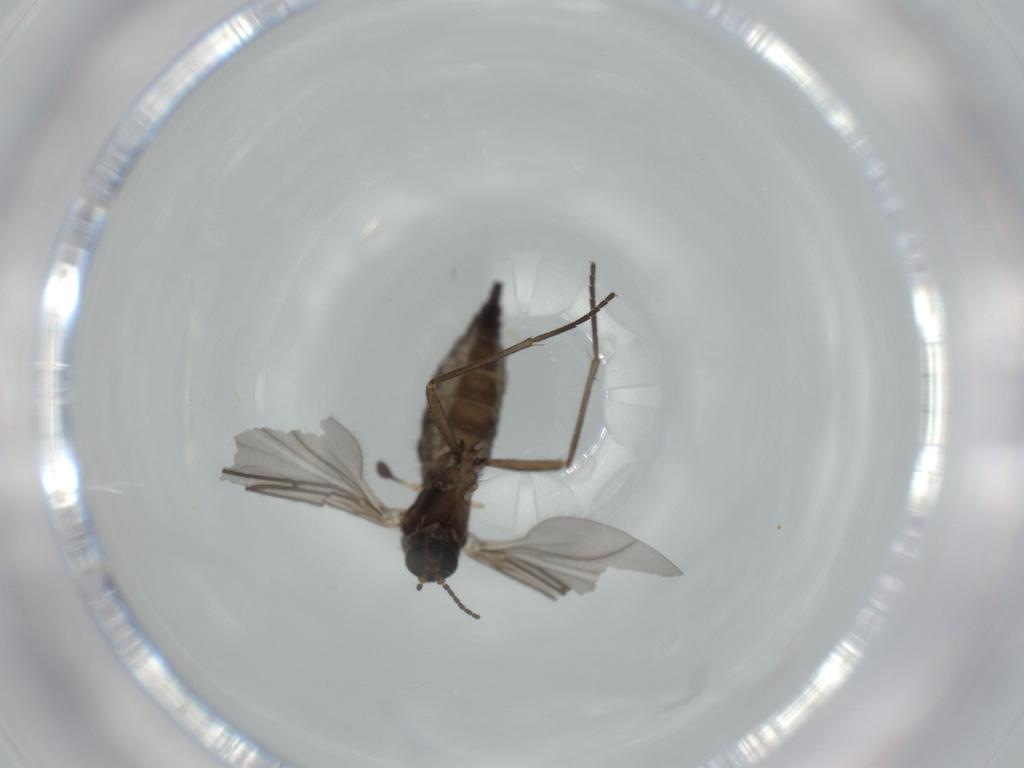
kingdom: Animalia
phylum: Arthropoda
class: Insecta
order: Diptera
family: Sciaridae
